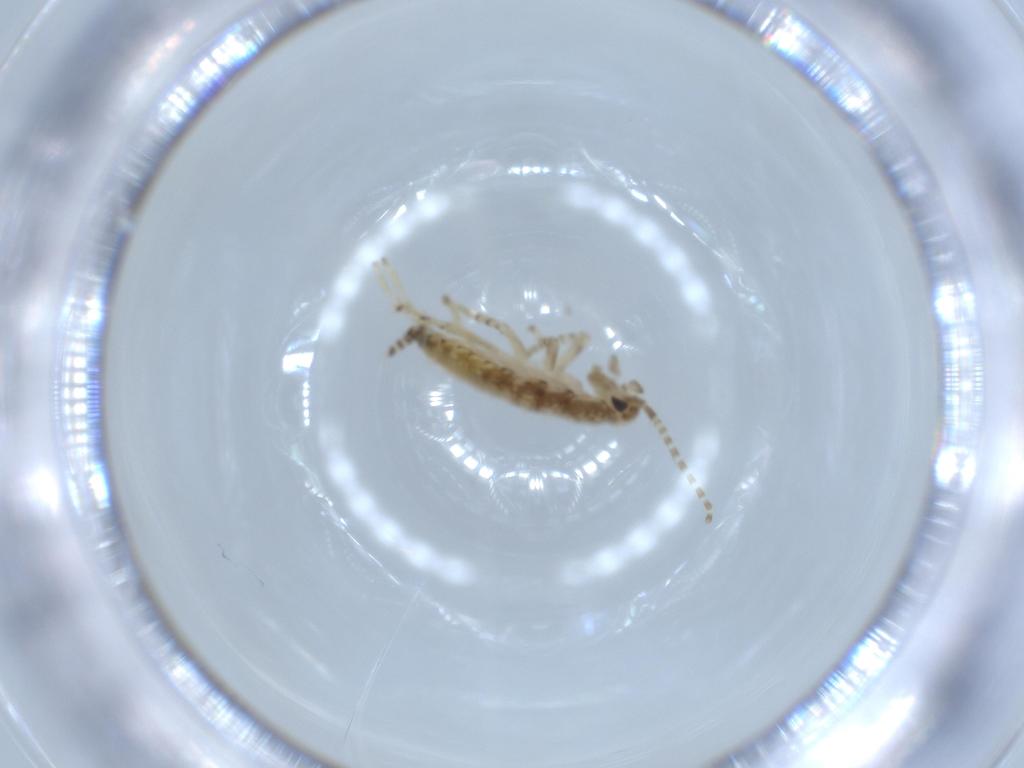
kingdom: Animalia
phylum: Arthropoda
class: Insecta
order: Blattodea
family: Ectobiidae
